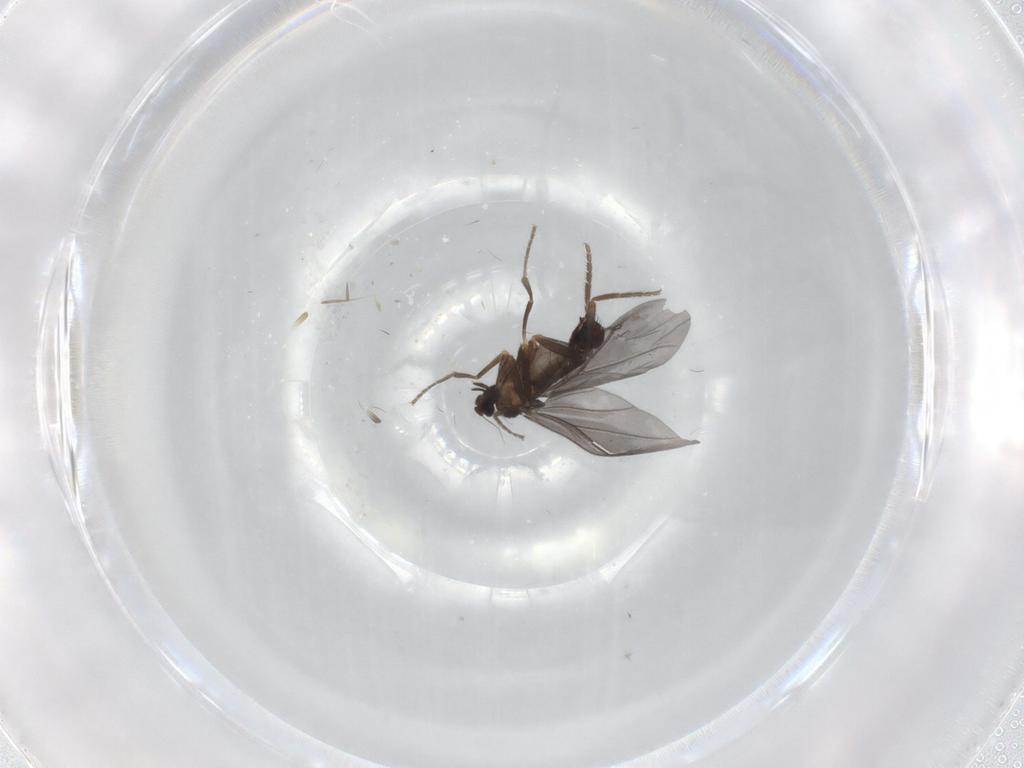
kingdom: Animalia
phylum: Arthropoda
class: Insecta
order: Diptera
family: Phoridae
